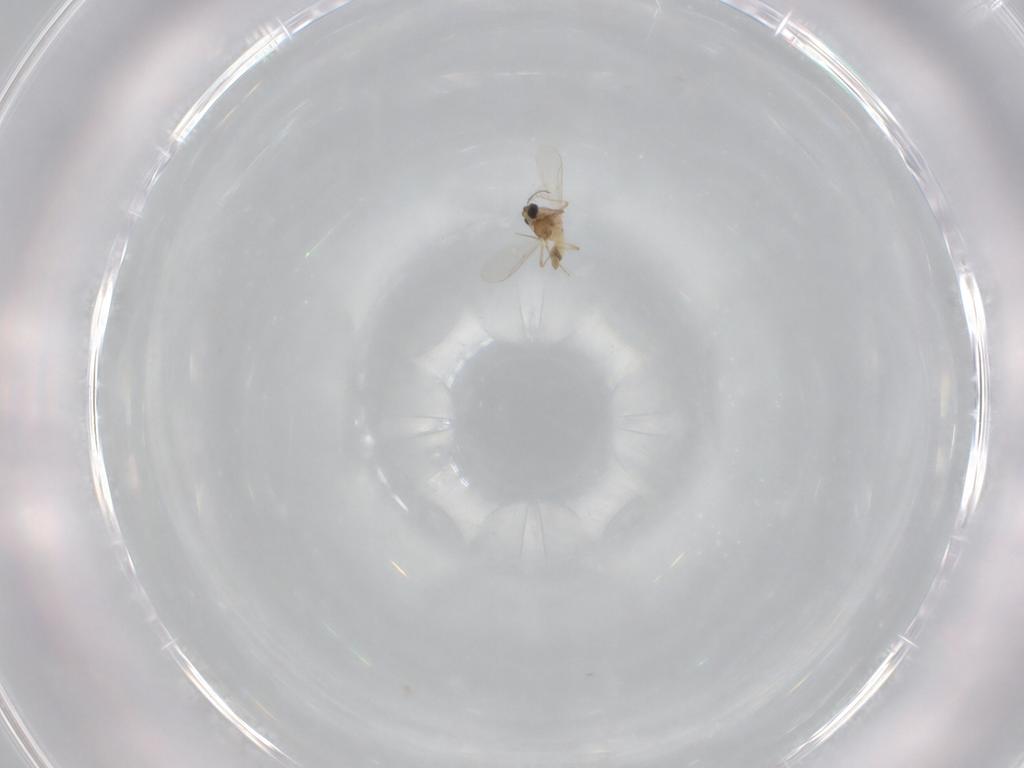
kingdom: Animalia
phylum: Arthropoda
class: Insecta
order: Diptera
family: Chironomidae
